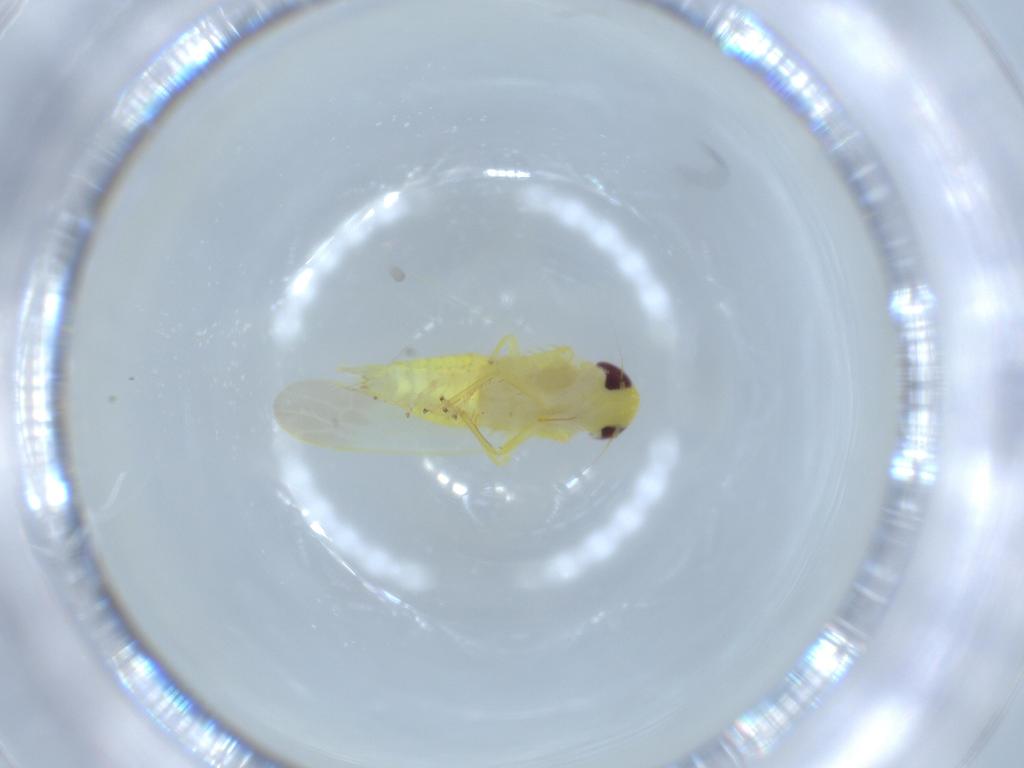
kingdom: Animalia
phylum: Arthropoda
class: Insecta
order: Hemiptera
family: Cicadellidae
